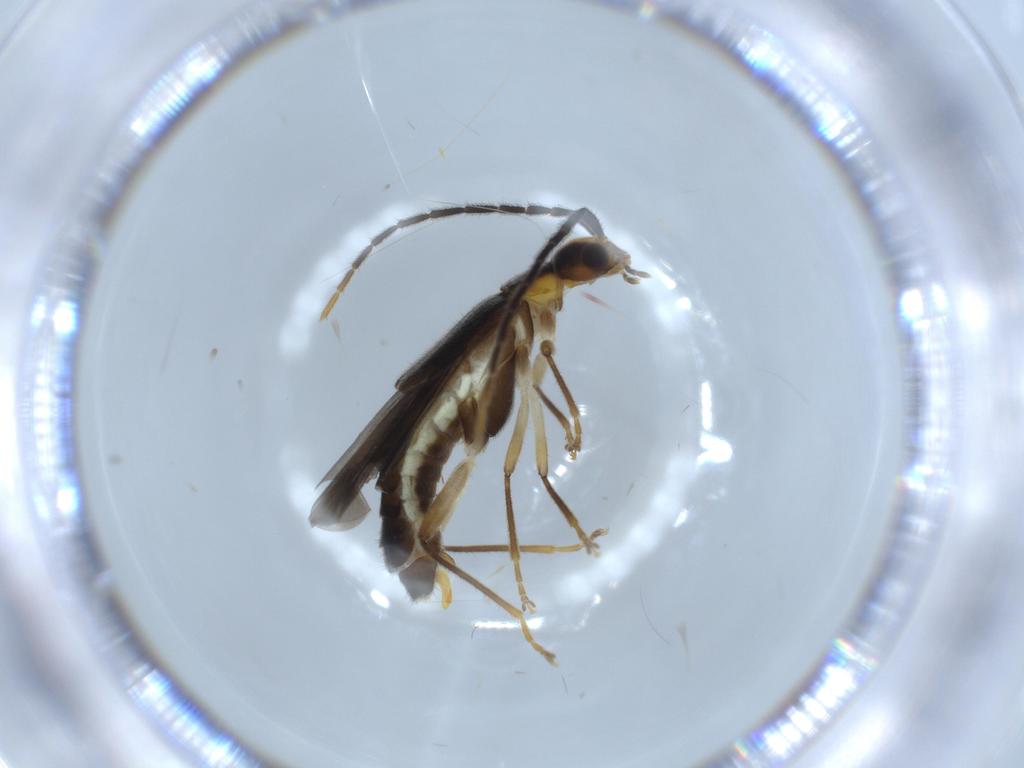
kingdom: Animalia
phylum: Arthropoda
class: Insecta
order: Coleoptera
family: Cantharidae
